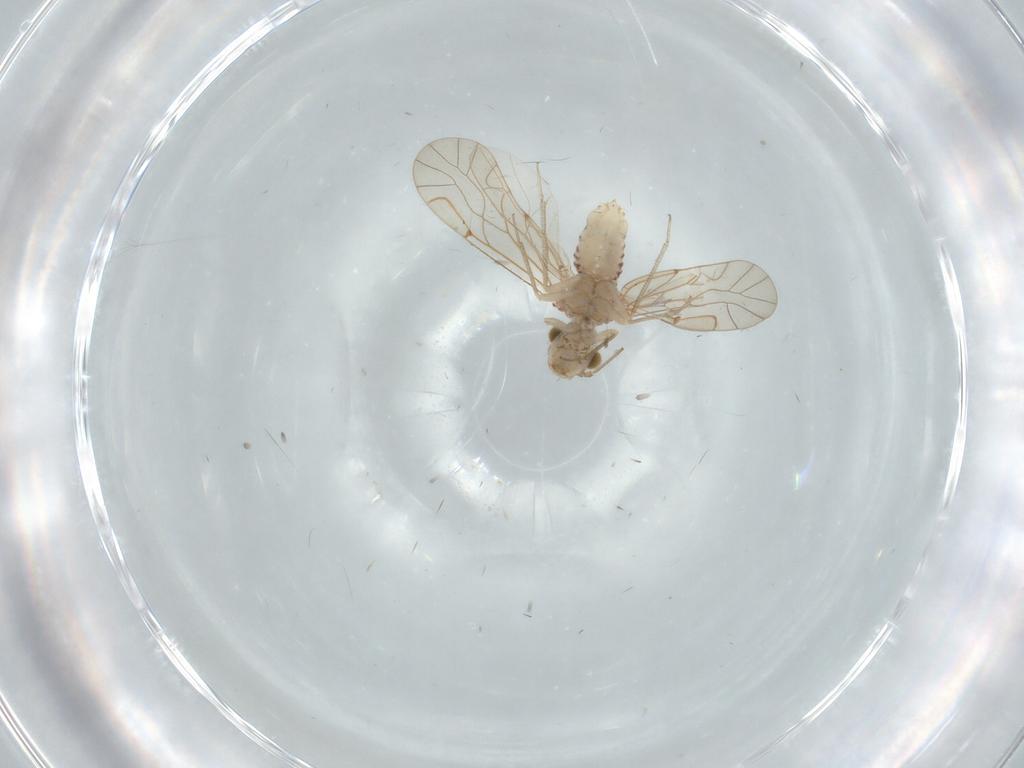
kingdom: Animalia
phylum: Arthropoda
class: Insecta
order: Psocodea
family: Lachesillidae
